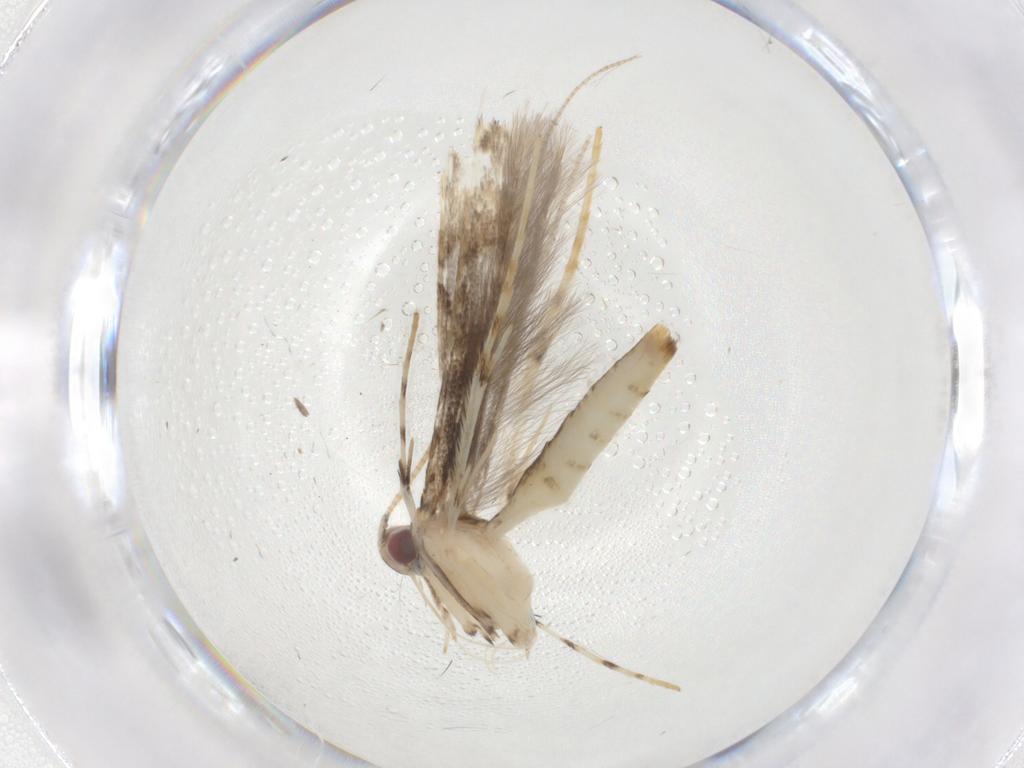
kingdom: Animalia
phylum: Arthropoda
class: Insecta
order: Lepidoptera
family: Gracillariidae
